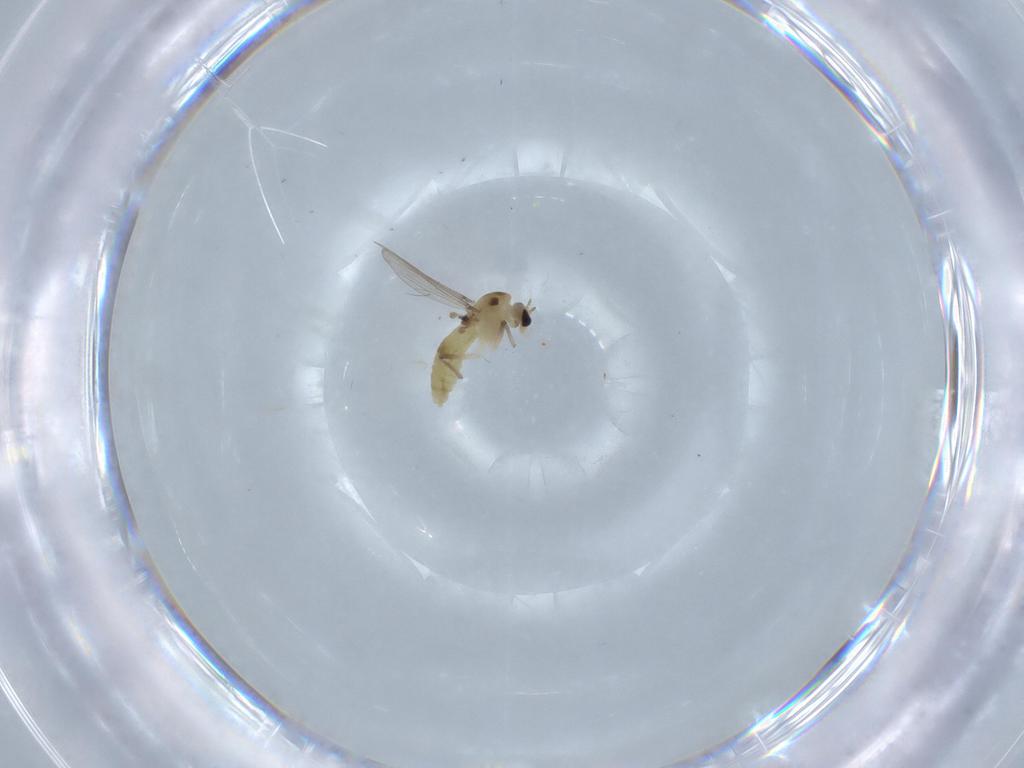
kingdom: Animalia
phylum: Arthropoda
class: Insecta
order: Diptera
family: Chironomidae
